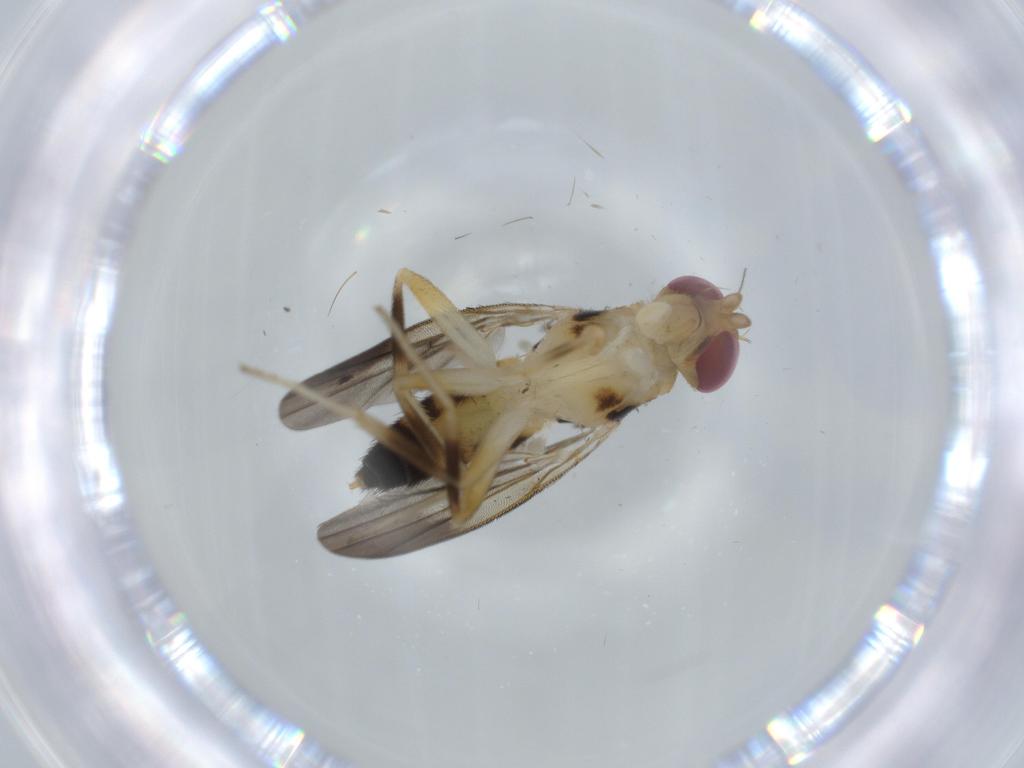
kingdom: Animalia
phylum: Arthropoda
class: Insecta
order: Diptera
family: Clusiidae
